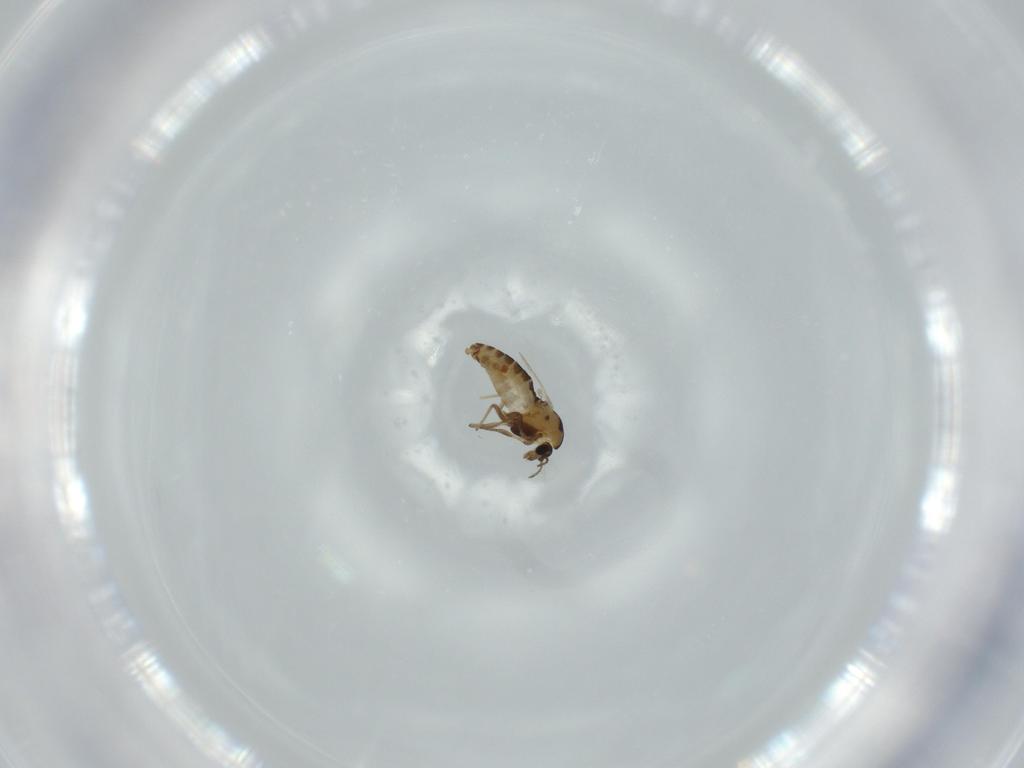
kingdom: Animalia
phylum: Arthropoda
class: Insecta
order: Diptera
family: Chironomidae
